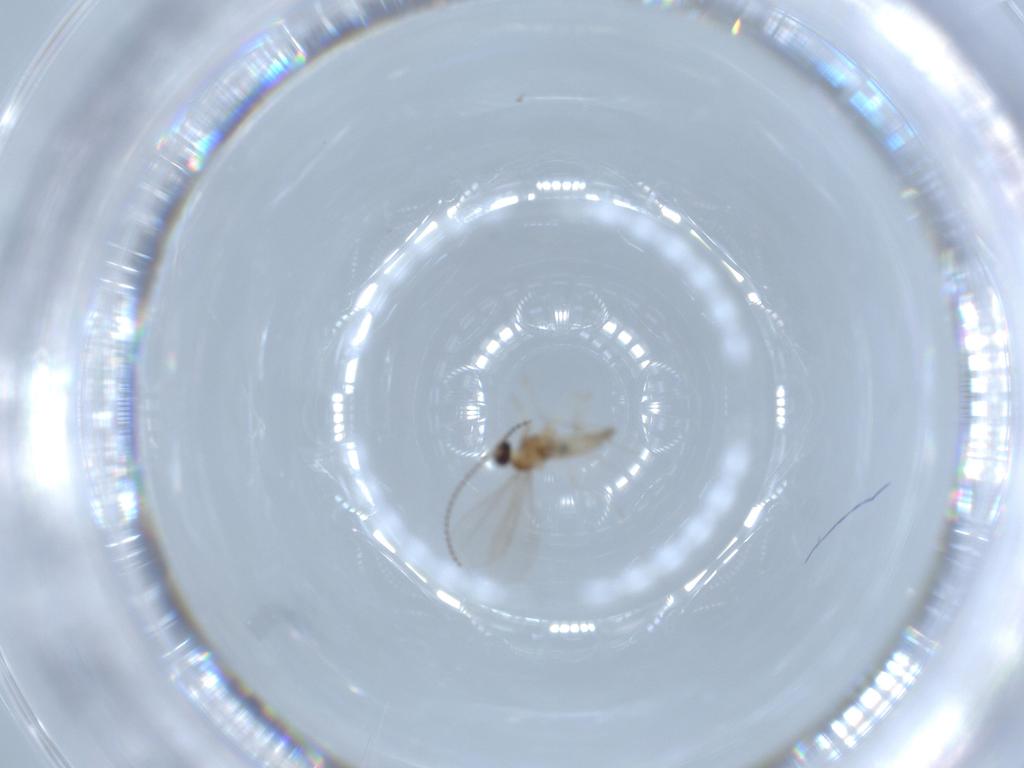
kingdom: Animalia
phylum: Arthropoda
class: Insecta
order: Diptera
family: Cecidomyiidae
